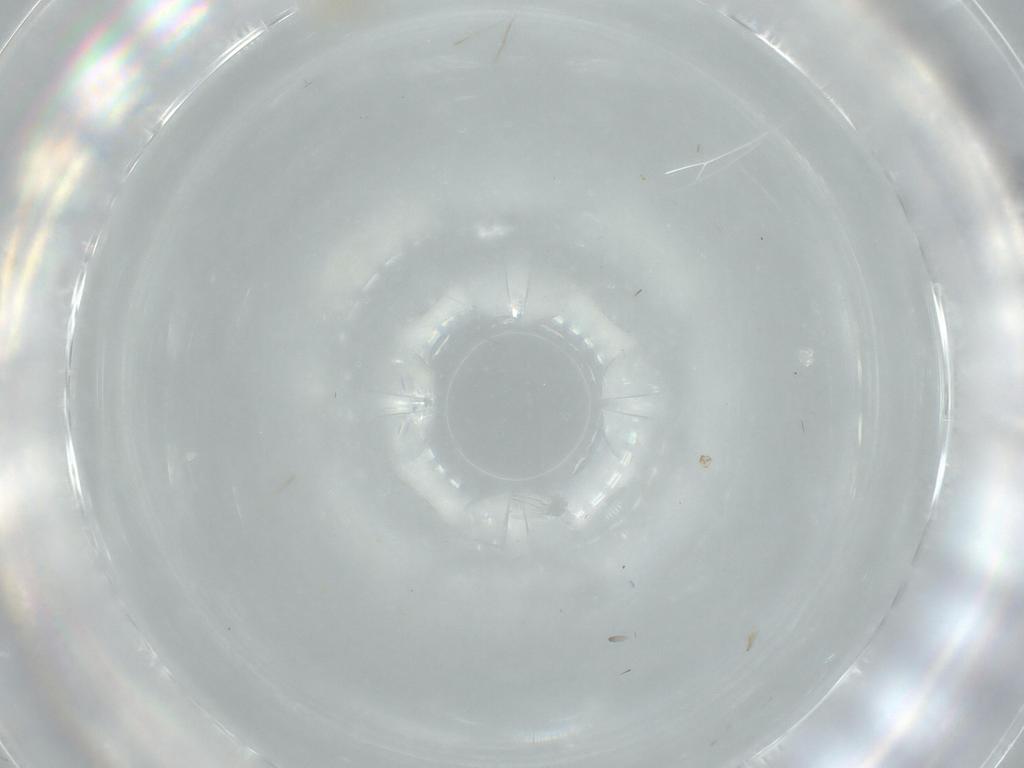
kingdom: Animalia
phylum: Arthropoda
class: Insecta
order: Diptera
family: Cecidomyiidae
